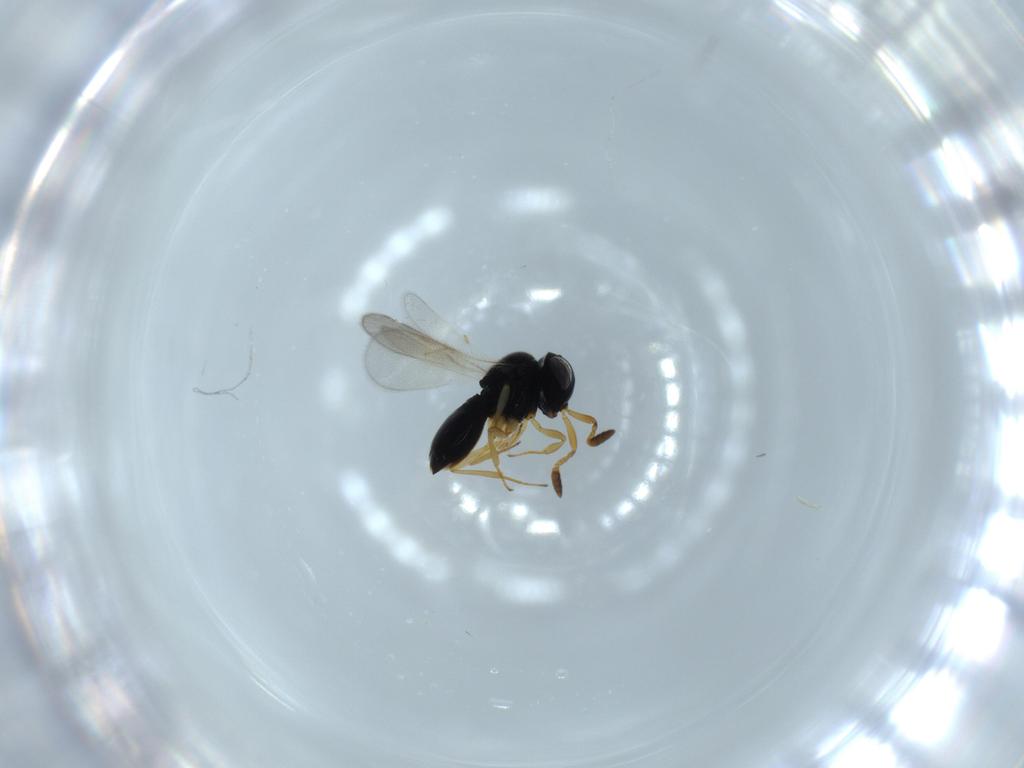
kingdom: Animalia
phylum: Arthropoda
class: Insecta
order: Hymenoptera
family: Scelionidae
